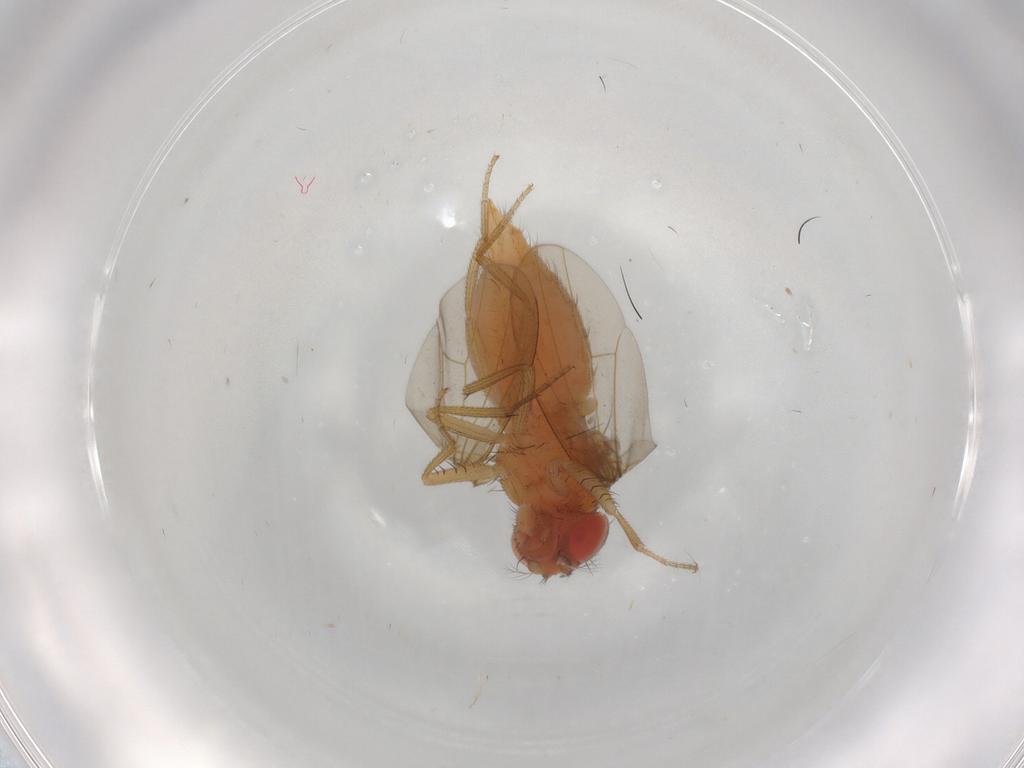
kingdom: Animalia
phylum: Arthropoda
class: Insecta
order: Diptera
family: Drosophilidae
